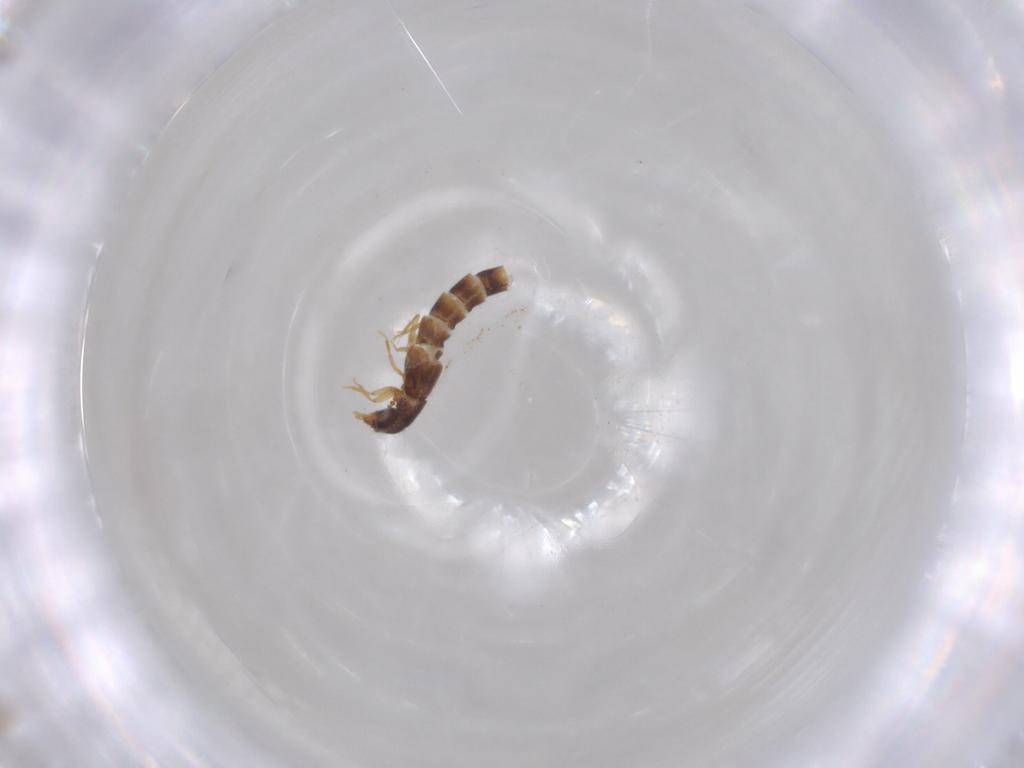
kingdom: Animalia
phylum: Arthropoda
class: Insecta
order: Coleoptera
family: Staphylinidae
